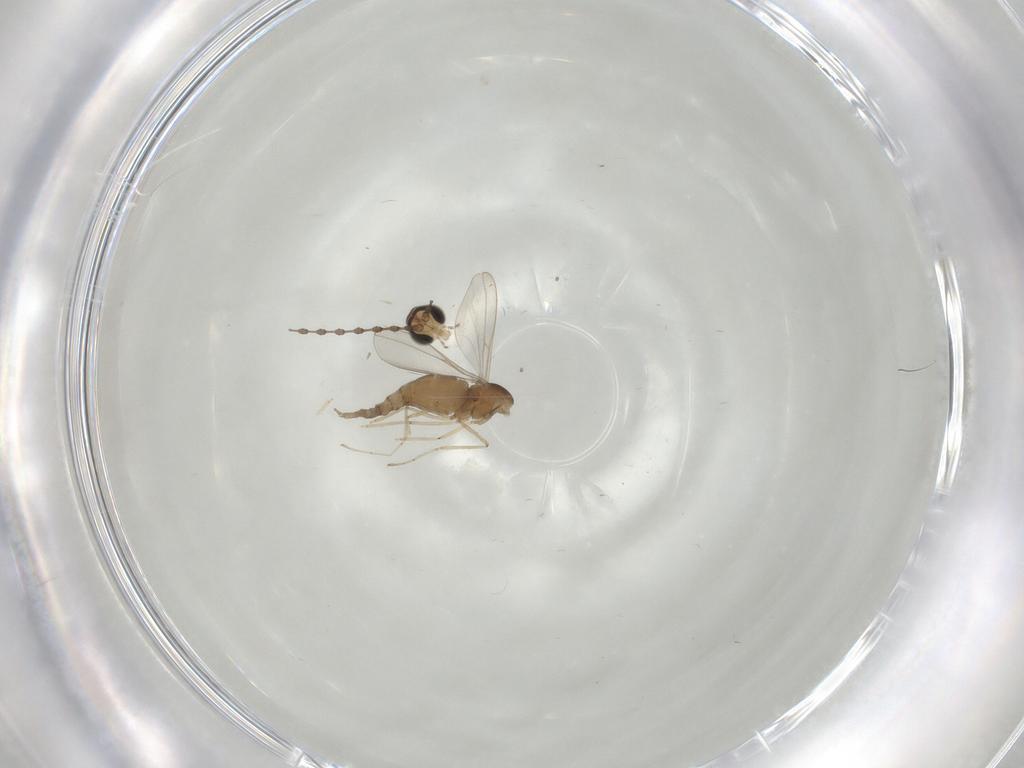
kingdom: Animalia
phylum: Arthropoda
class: Insecta
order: Diptera
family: Cecidomyiidae
